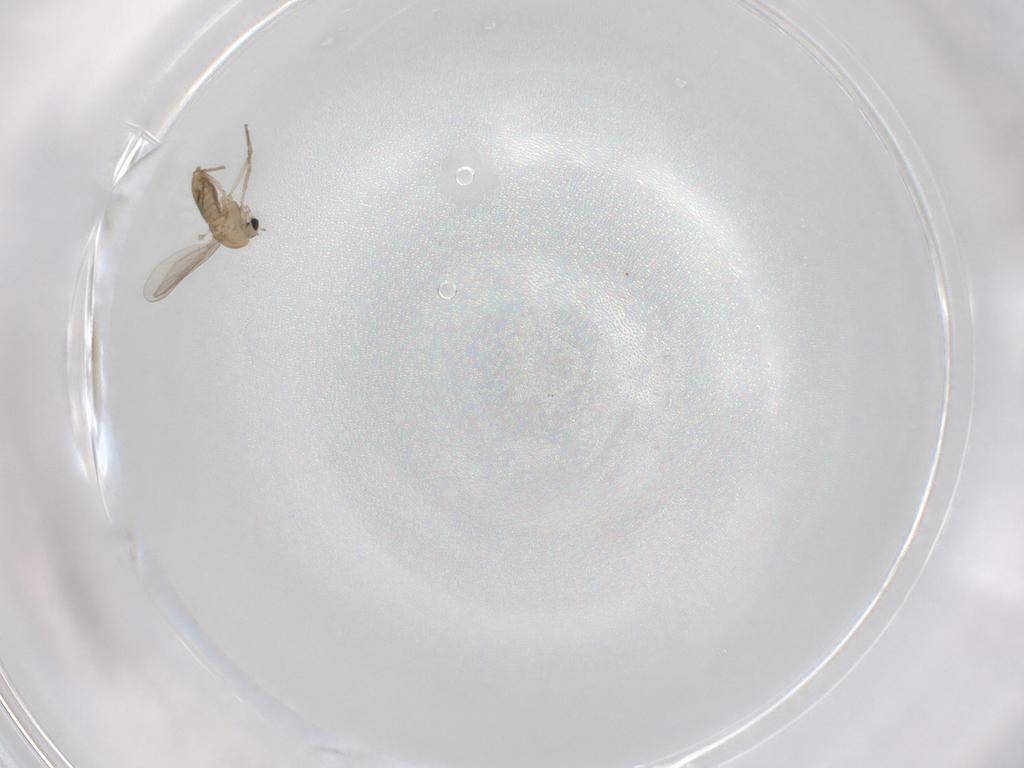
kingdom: Animalia
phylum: Arthropoda
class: Insecta
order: Diptera
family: Chironomidae
